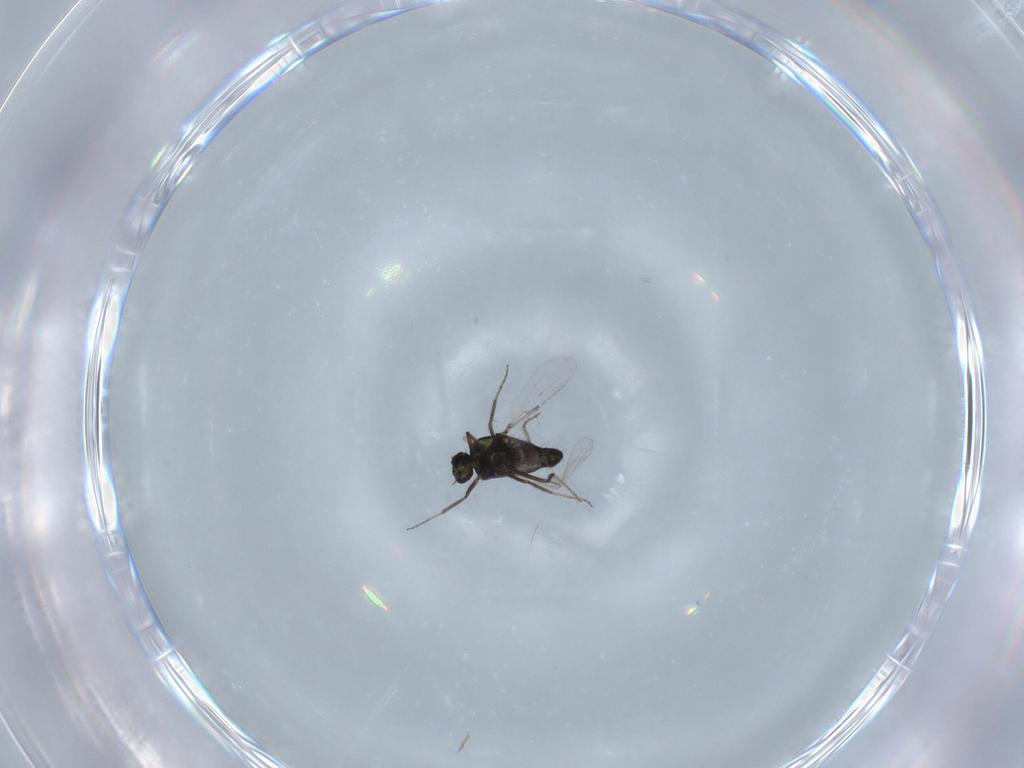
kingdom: Animalia
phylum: Arthropoda
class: Insecta
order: Diptera
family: Ceratopogonidae
